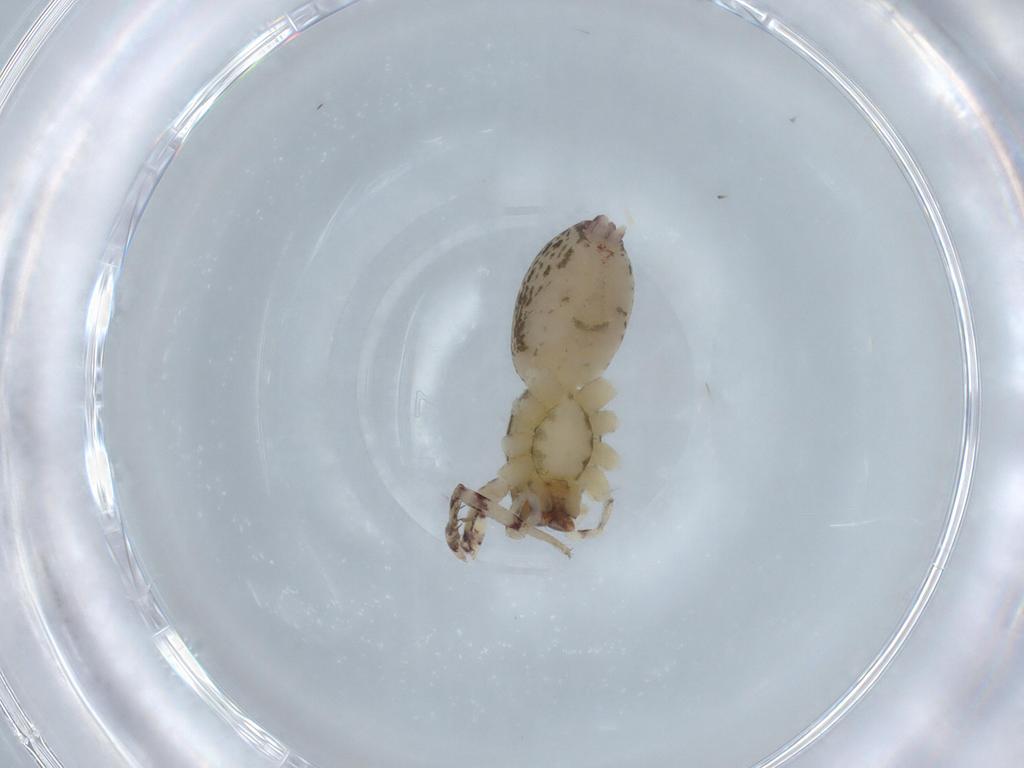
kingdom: Animalia
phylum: Arthropoda
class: Arachnida
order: Araneae
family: Anyphaenidae
